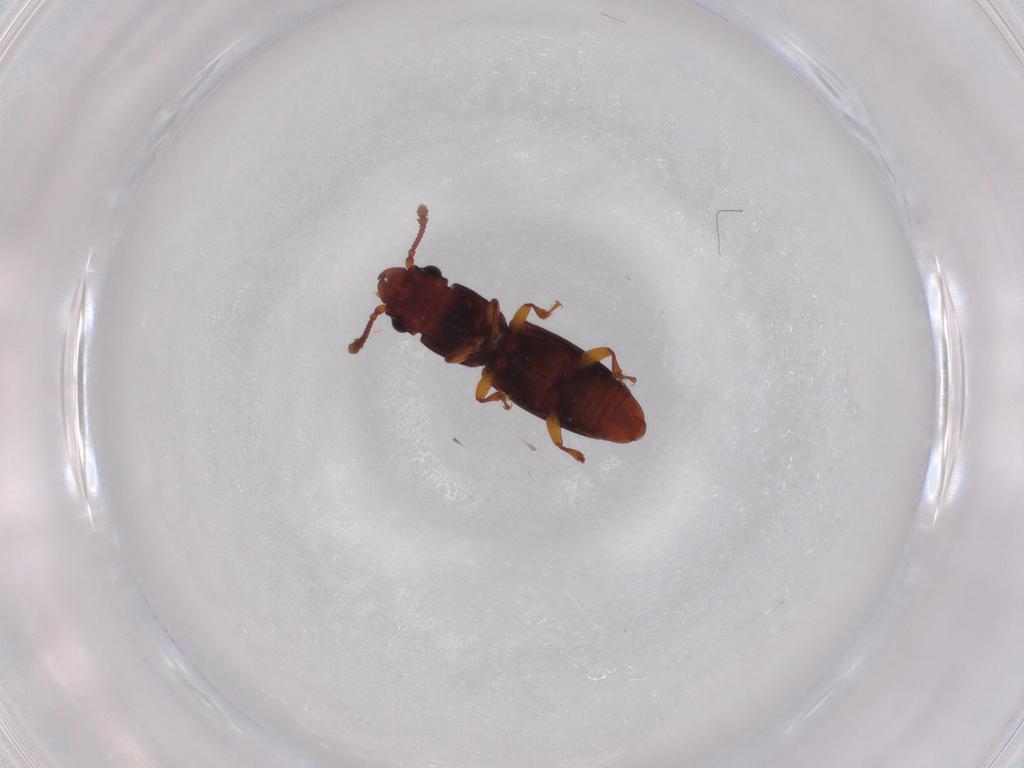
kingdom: Animalia
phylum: Arthropoda
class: Insecta
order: Coleoptera
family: Monotomidae
